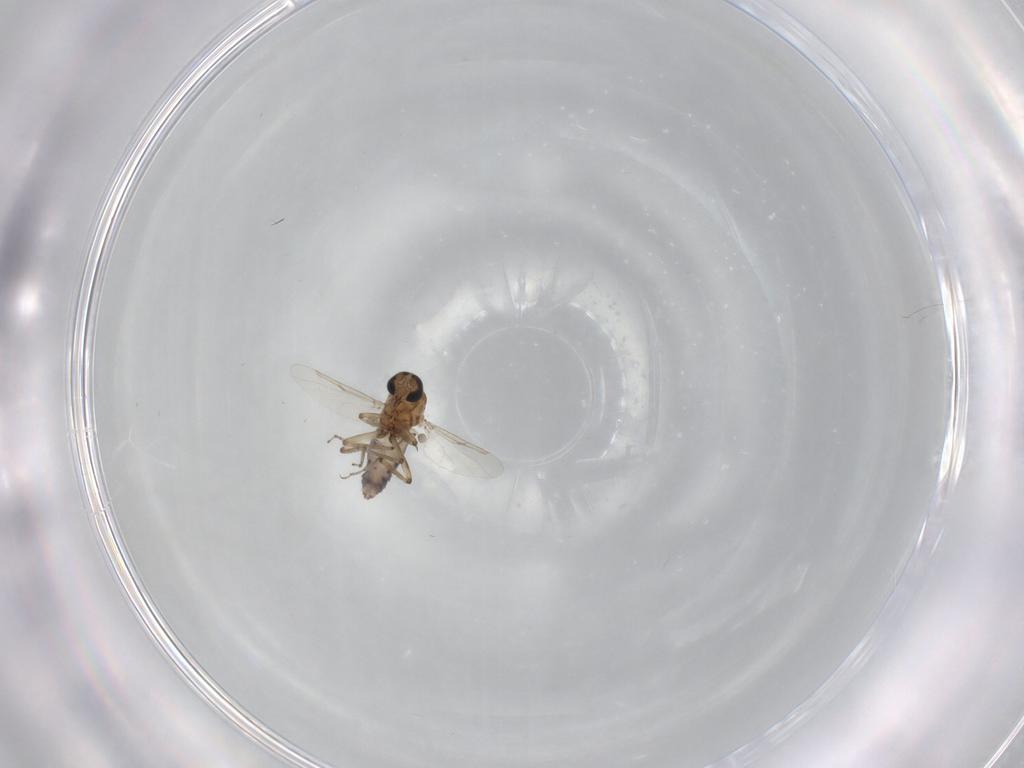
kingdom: Animalia
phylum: Arthropoda
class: Insecta
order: Diptera
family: Ceratopogonidae
